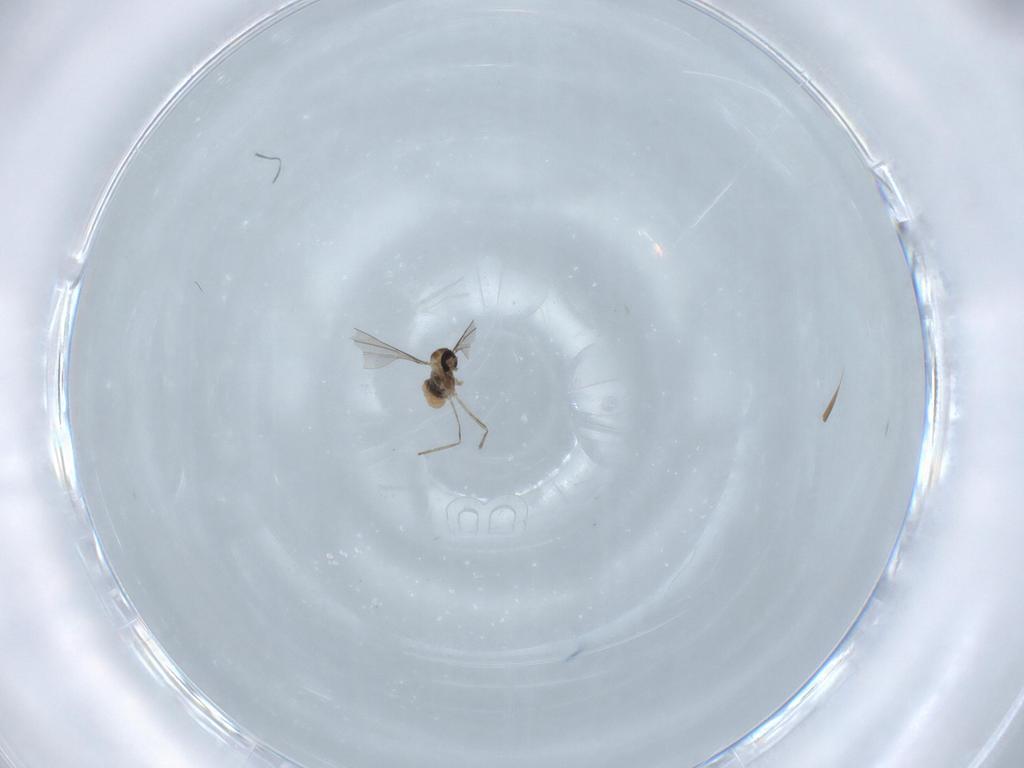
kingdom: Animalia
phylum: Arthropoda
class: Insecta
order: Diptera
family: Cecidomyiidae
